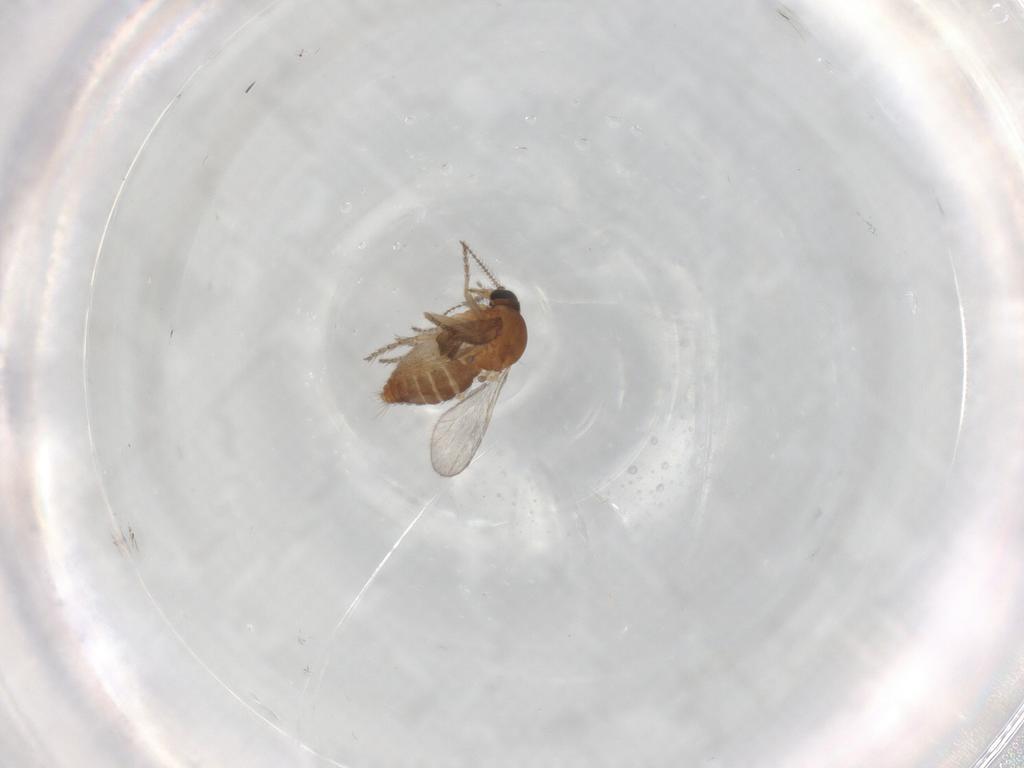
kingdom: Animalia
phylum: Arthropoda
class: Insecta
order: Diptera
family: Ceratopogonidae
